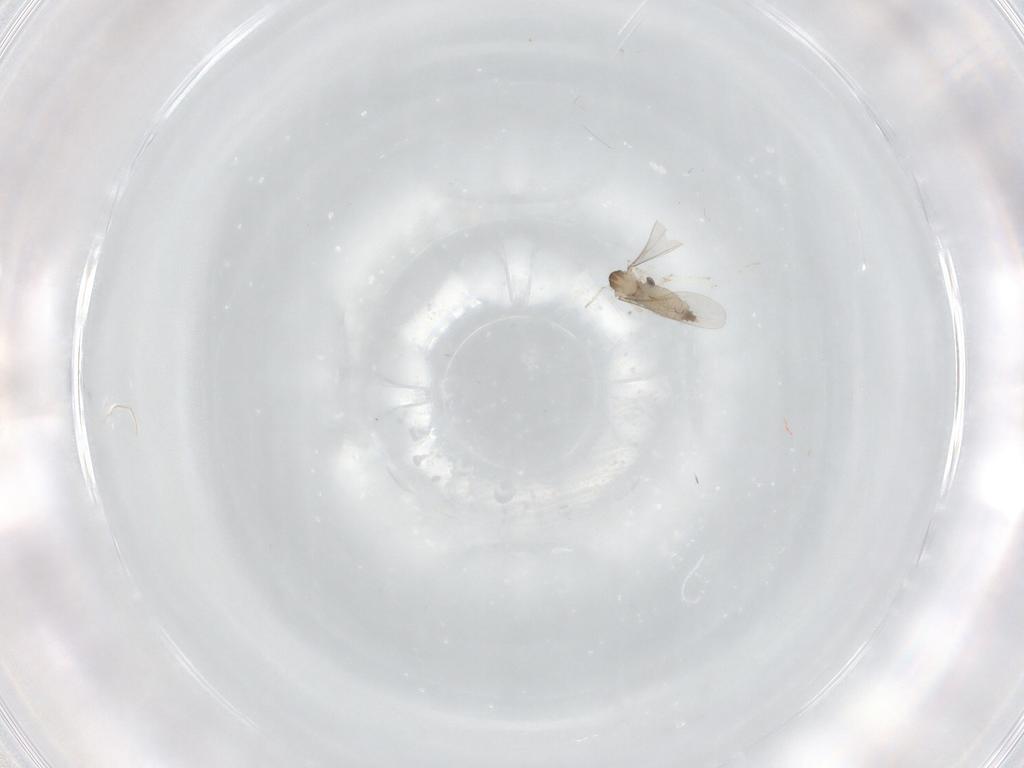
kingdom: Animalia
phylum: Arthropoda
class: Insecta
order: Diptera
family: Cecidomyiidae
